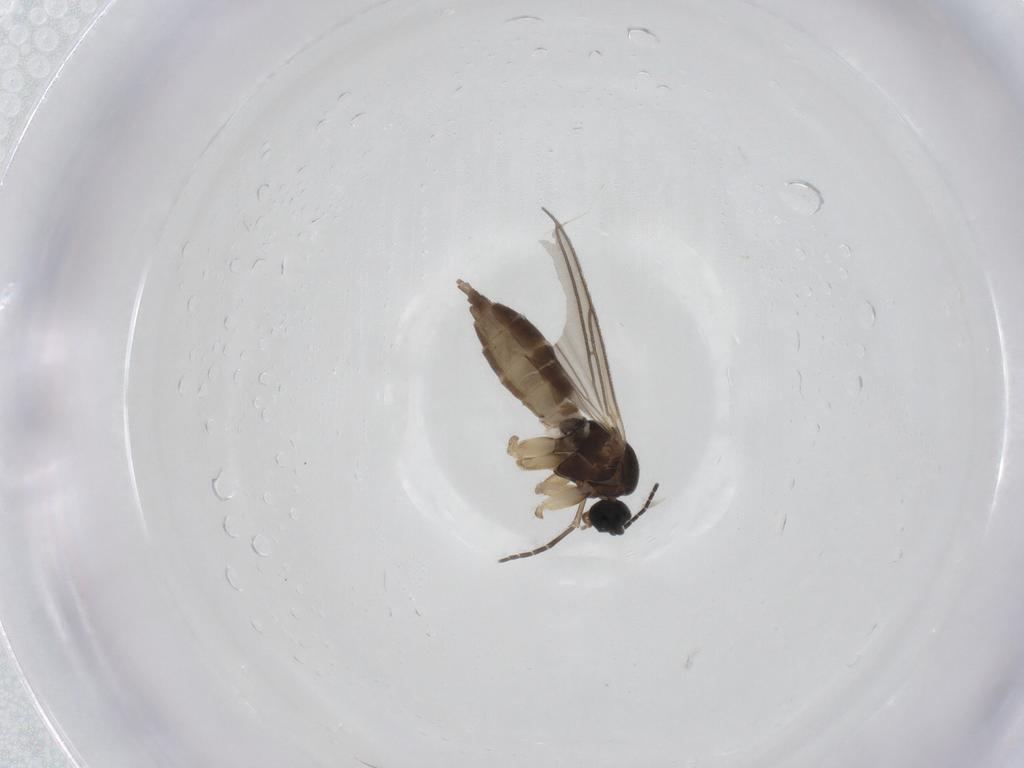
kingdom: Animalia
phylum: Arthropoda
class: Insecta
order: Diptera
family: Sciaridae
